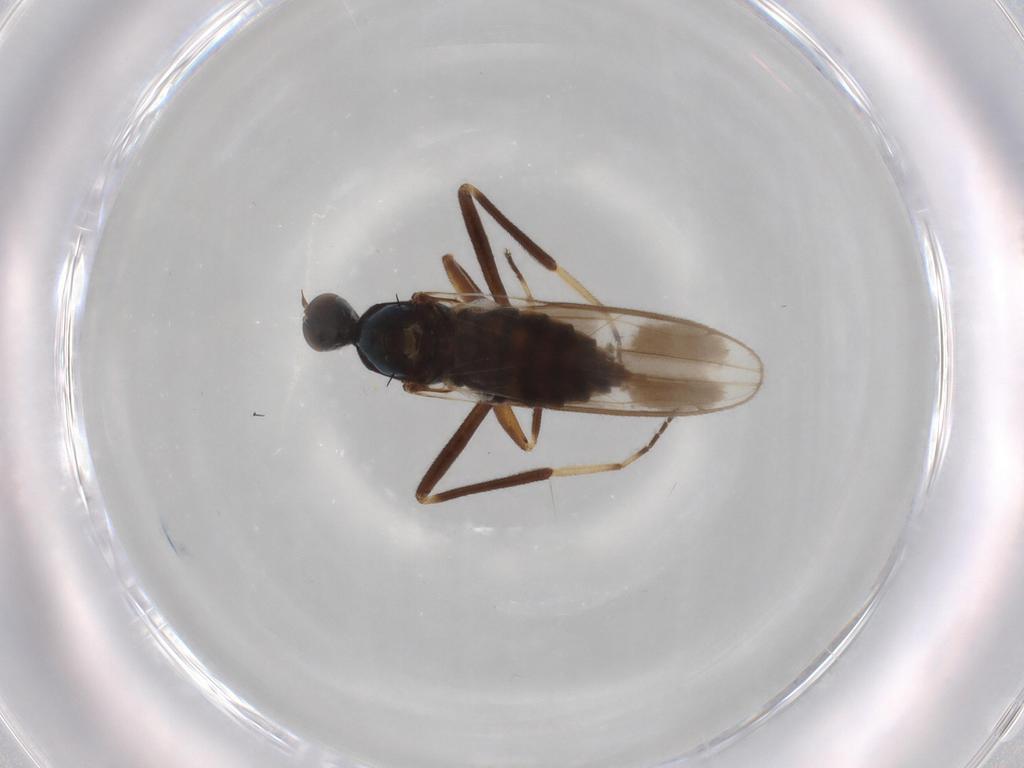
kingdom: Animalia
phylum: Arthropoda
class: Insecta
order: Diptera
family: Hybotidae
